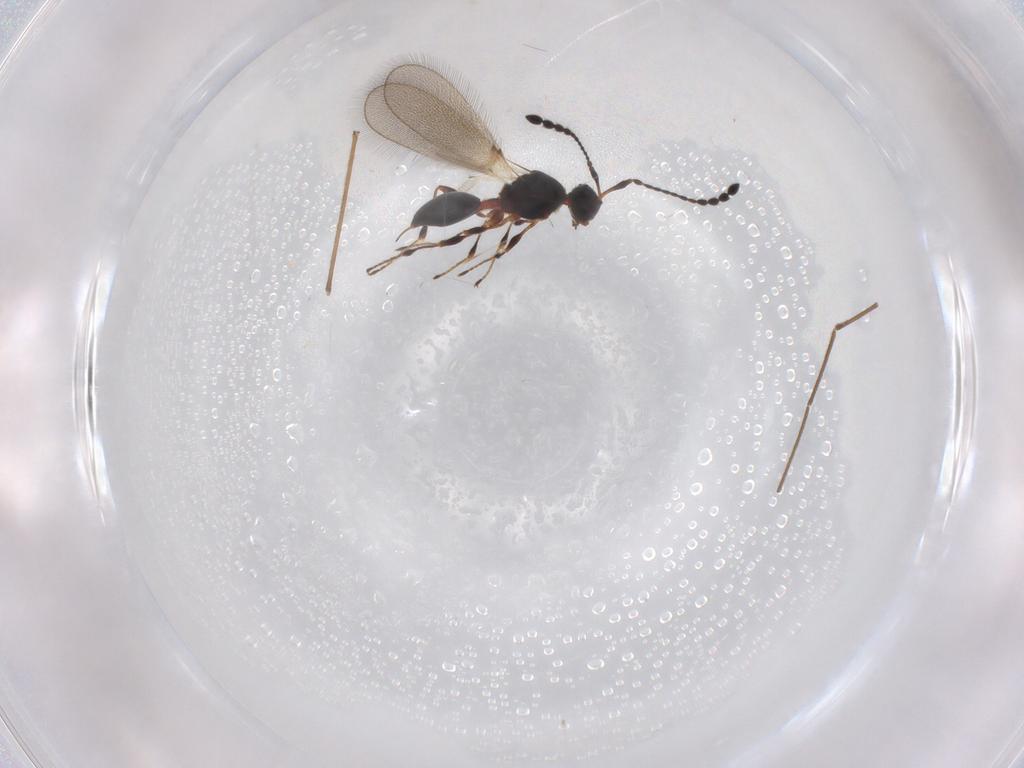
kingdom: Animalia
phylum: Arthropoda
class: Insecta
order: Hymenoptera
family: Diapriidae
